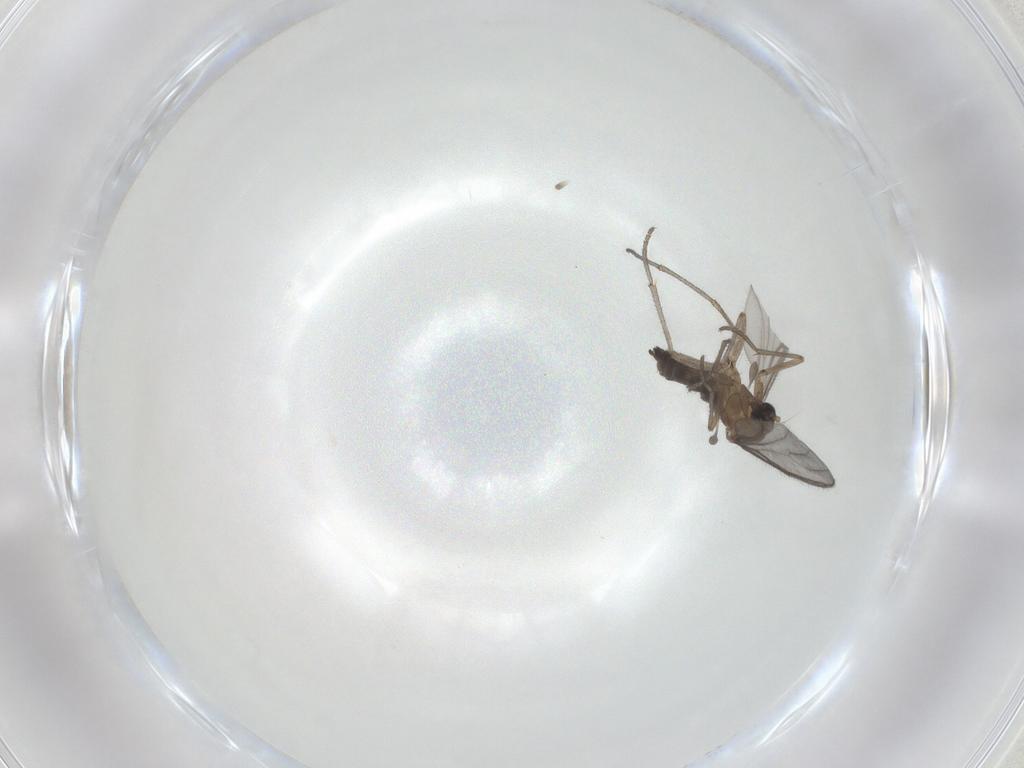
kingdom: Animalia
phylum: Arthropoda
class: Insecta
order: Diptera
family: Sciaridae
